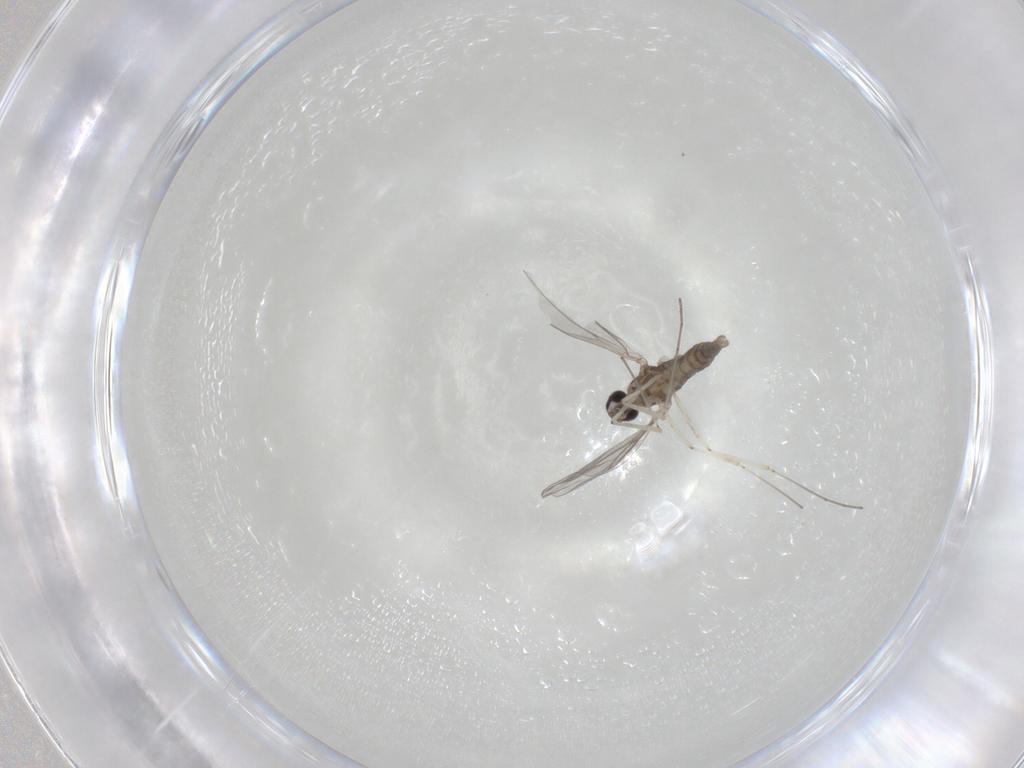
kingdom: Animalia
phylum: Arthropoda
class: Insecta
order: Diptera
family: Cecidomyiidae
